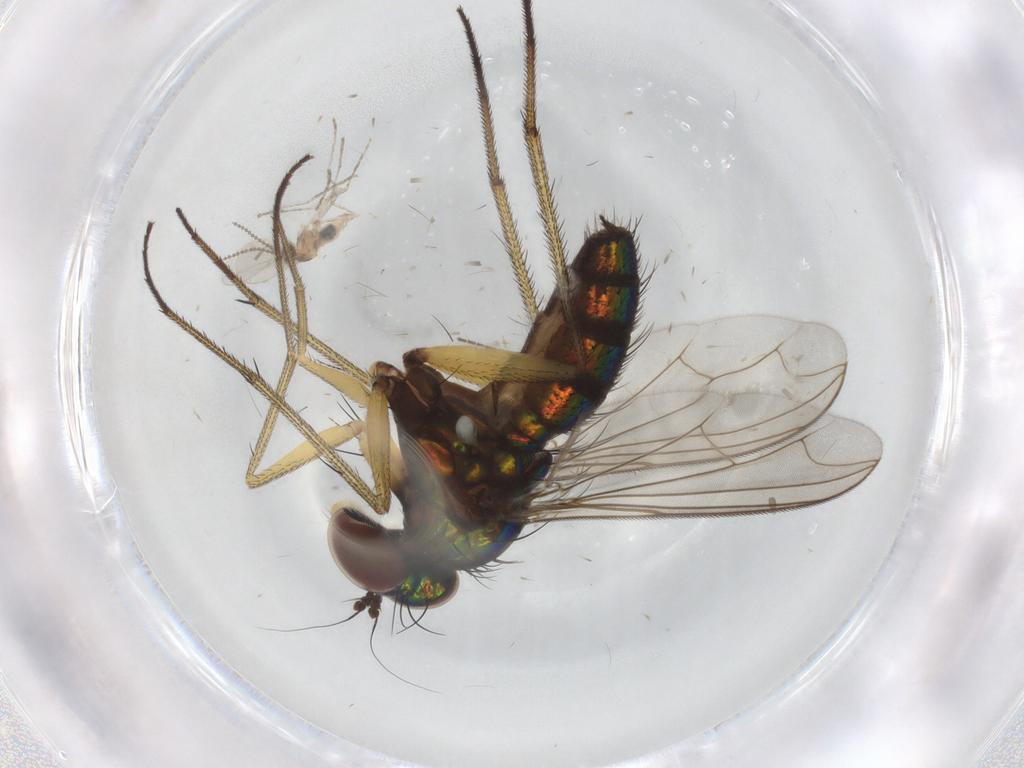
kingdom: Animalia
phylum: Arthropoda
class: Insecta
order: Diptera
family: Dolichopodidae
